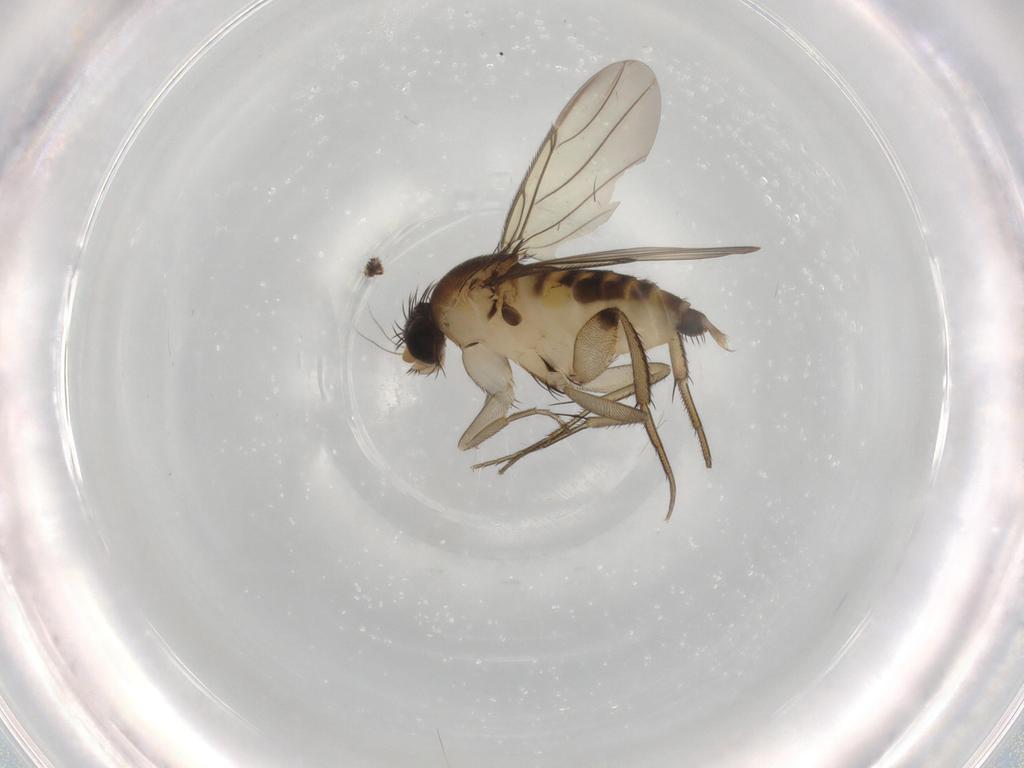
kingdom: Animalia
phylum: Arthropoda
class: Insecta
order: Diptera
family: Phoridae
